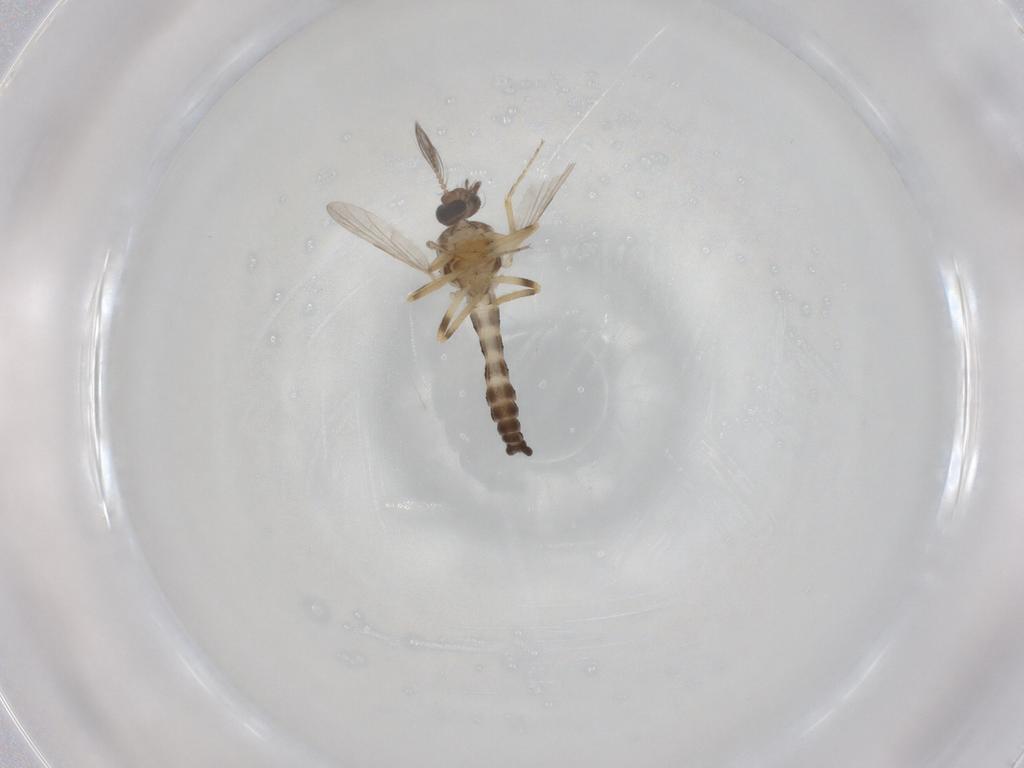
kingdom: Animalia
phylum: Arthropoda
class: Insecta
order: Diptera
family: Ceratopogonidae
